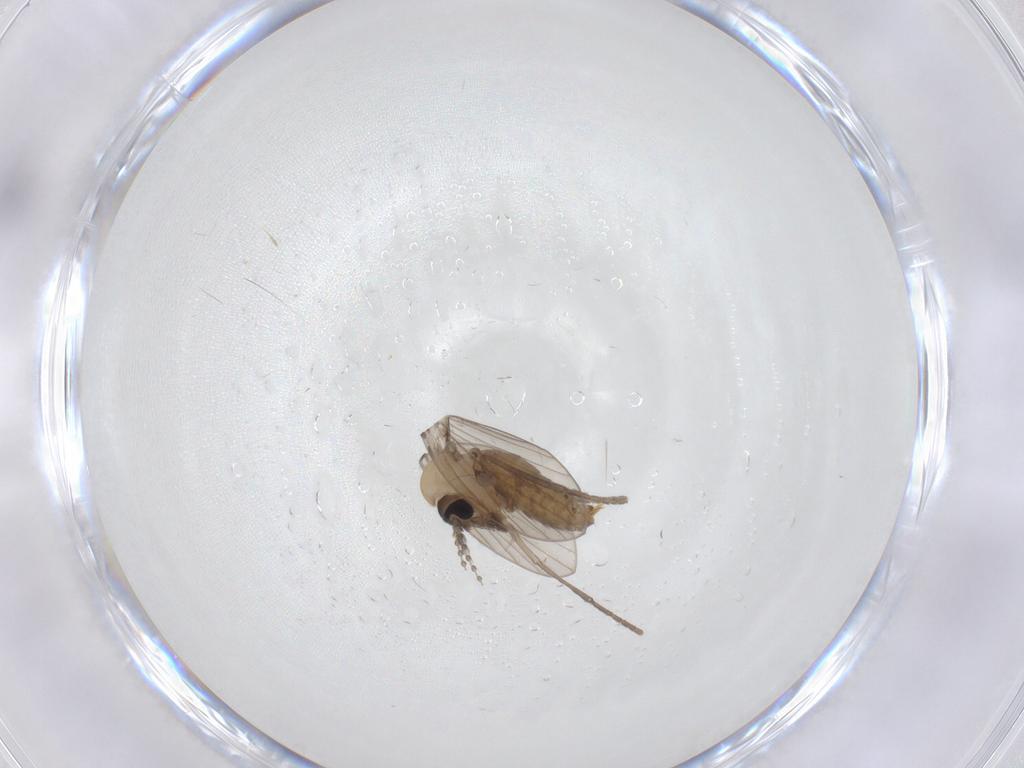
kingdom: Animalia
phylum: Arthropoda
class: Insecta
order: Diptera
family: Psychodidae
